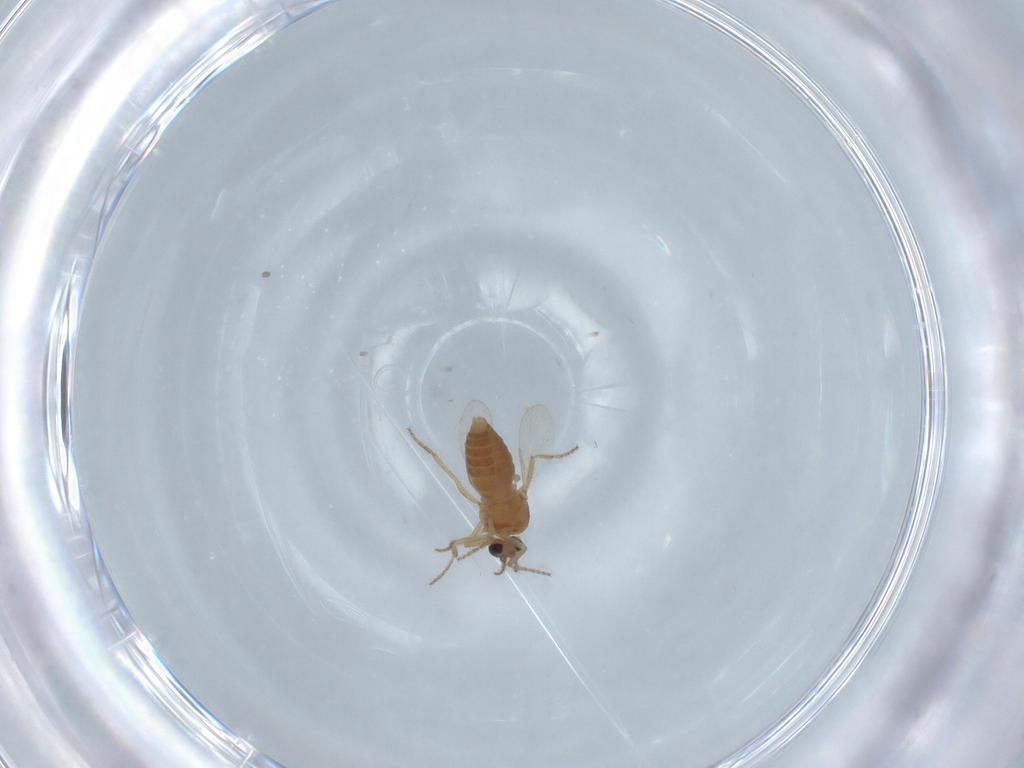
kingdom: Animalia
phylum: Arthropoda
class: Insecta
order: Diptera
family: Ceratopogonidae
